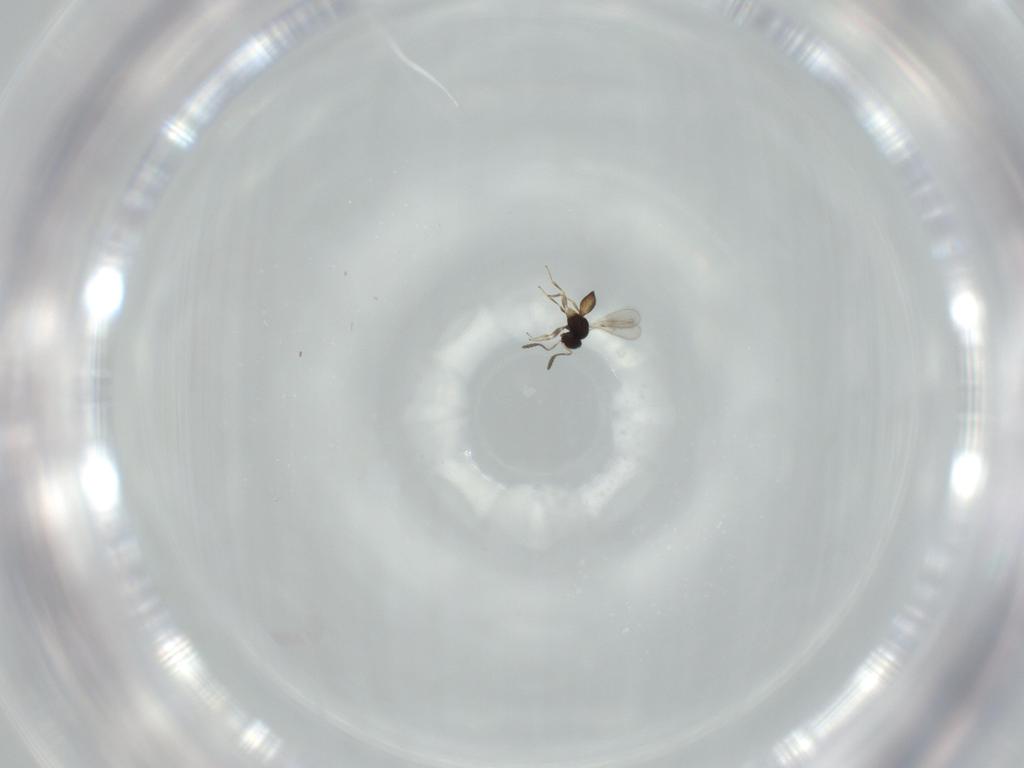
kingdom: Animalia
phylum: Arthropoda
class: Insecta
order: Hymenoptera
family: Scelionidae
